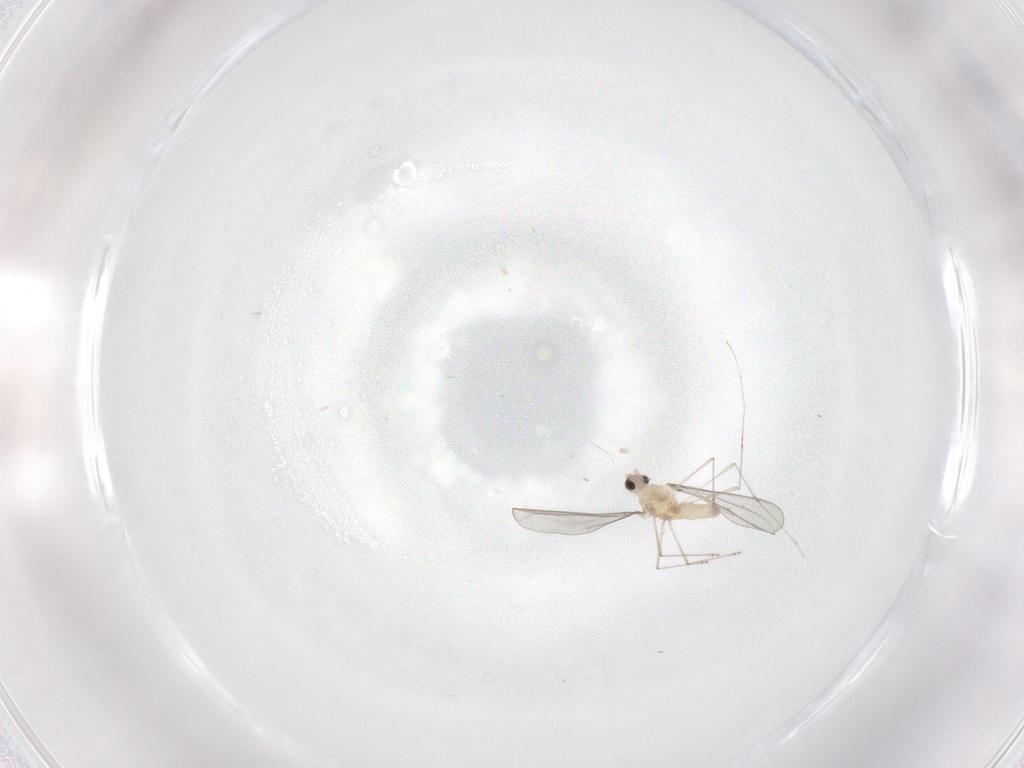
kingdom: Animalia
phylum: Arthropoda
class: Insecta
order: Diptera
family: Cecidomyiidae
